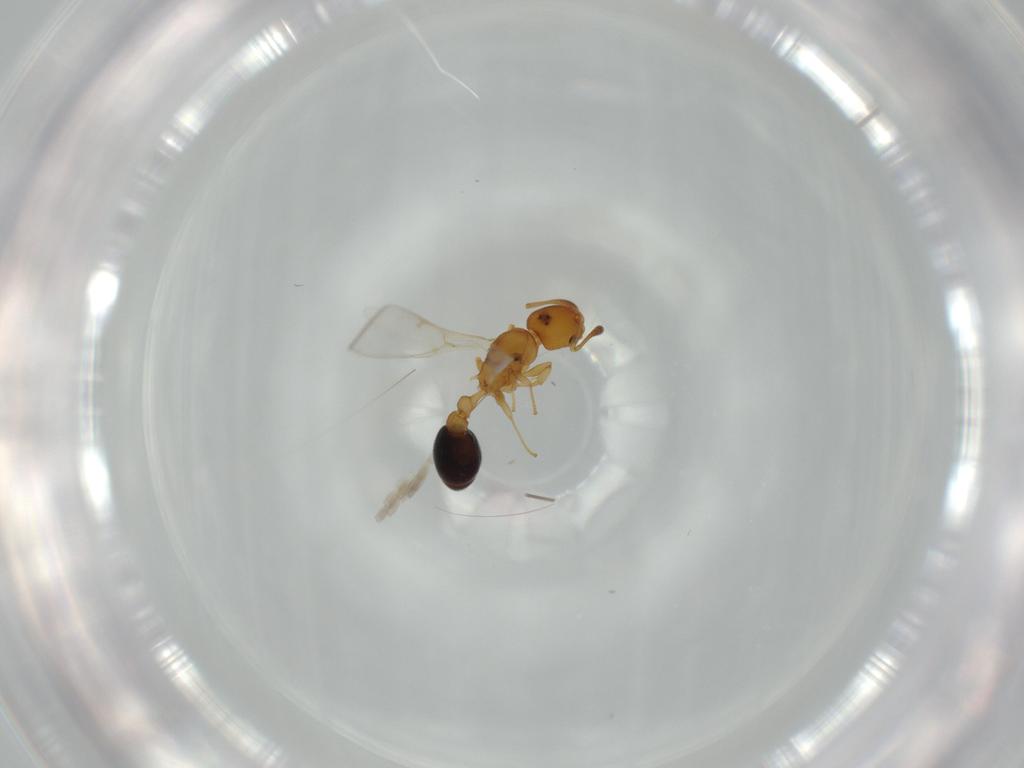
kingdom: Animalia
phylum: Arthropoda
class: Insecta
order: Hymenoptera
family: Formicidae
